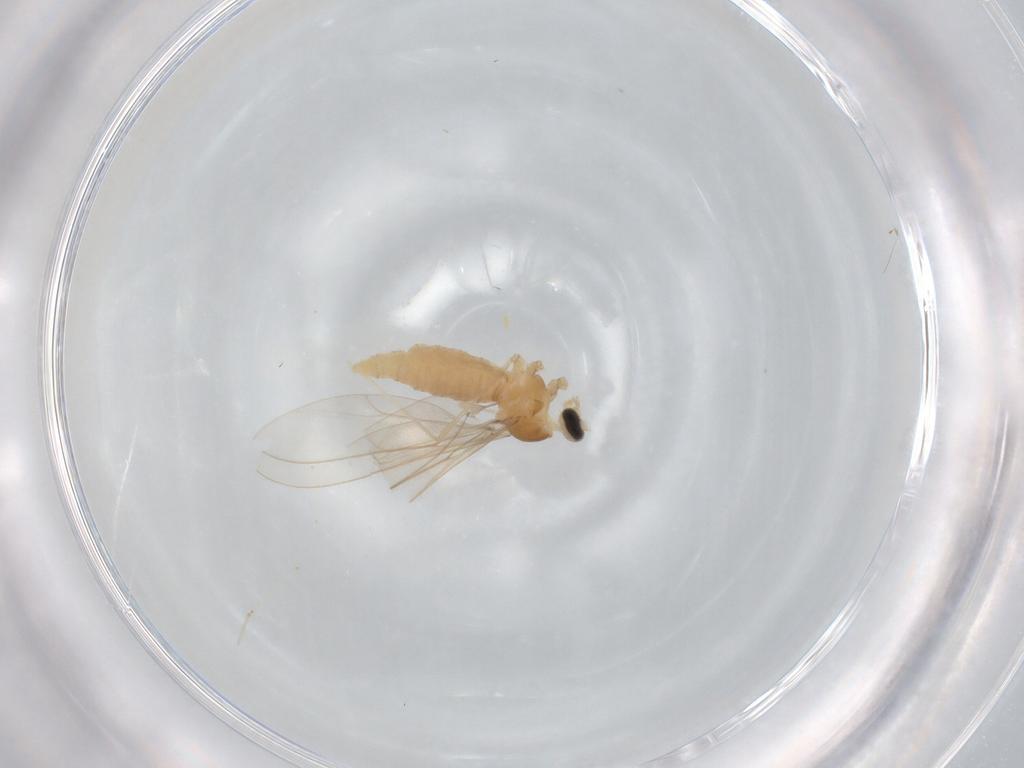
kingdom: Animalia
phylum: Arthropoda
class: Insecta
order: Diptera
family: Lauxaniidae
